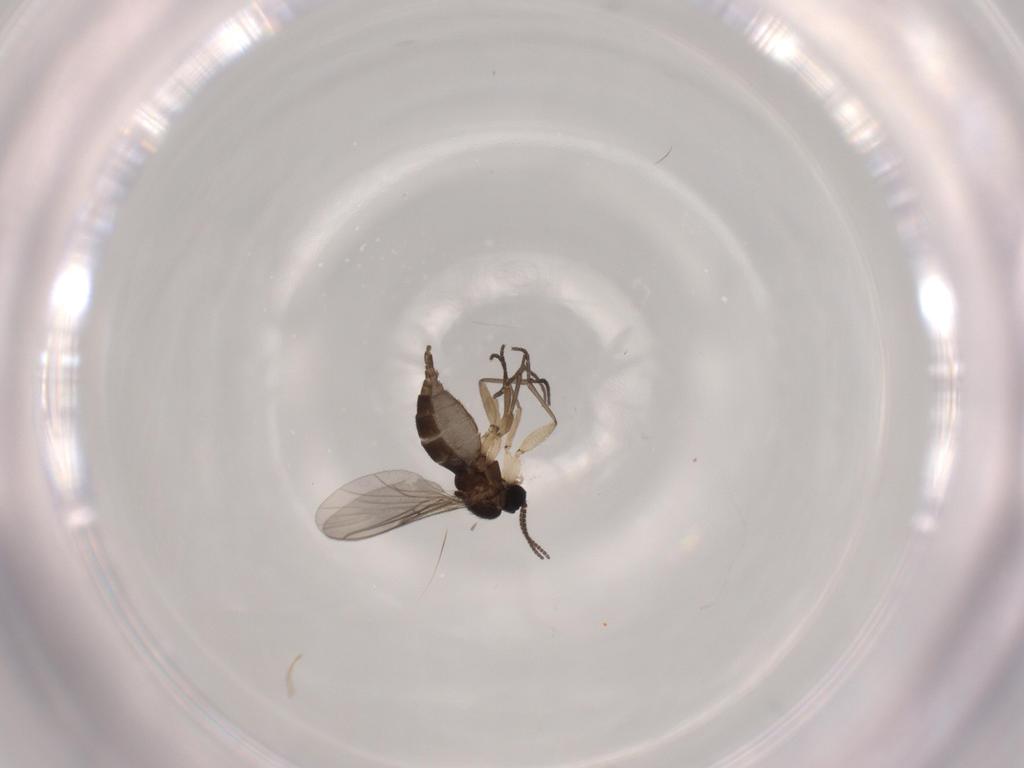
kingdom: Animalia
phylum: Arthropoda
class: Insecta
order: Diptera
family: Sciaridae
